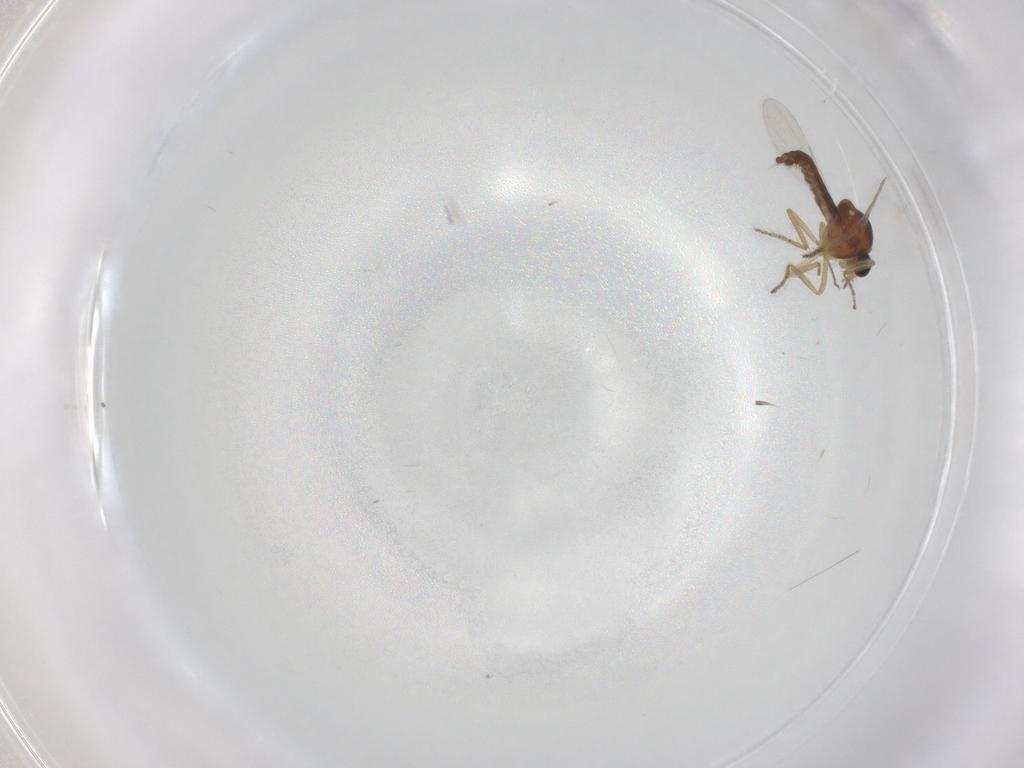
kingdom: Animalia
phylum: Arthropoda
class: Insecta
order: Diptera
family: Ceratopogonidae
